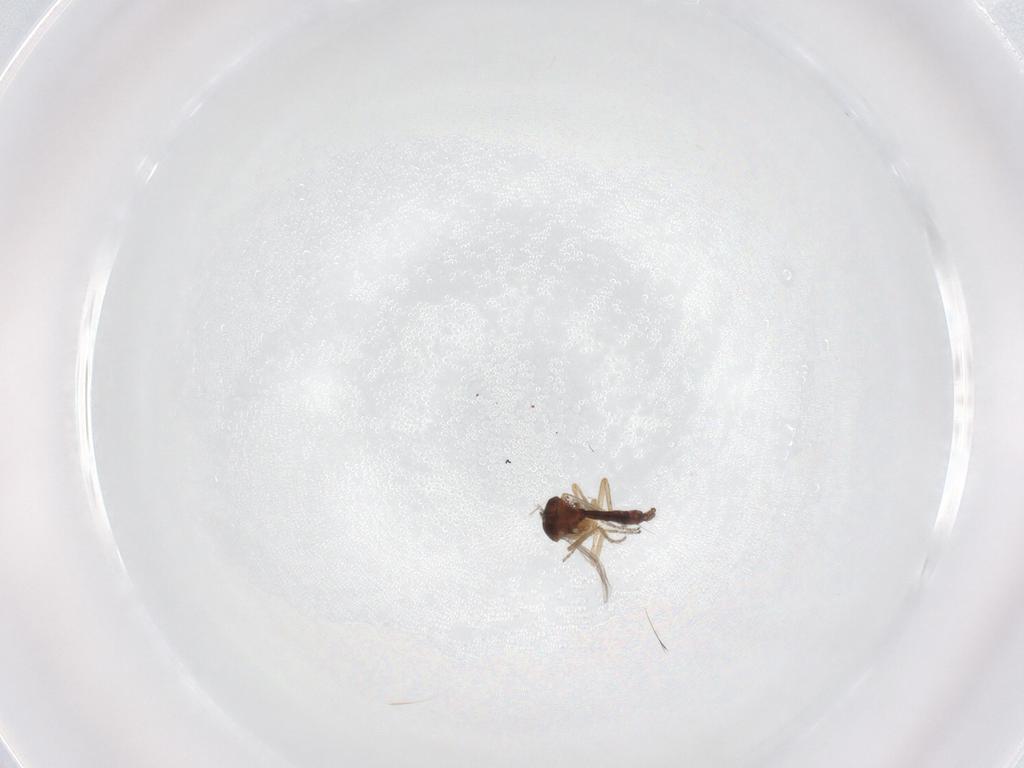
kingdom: Animalia
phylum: Arthropoda
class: Insecta
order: Diptera
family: Ceratopogonidae
